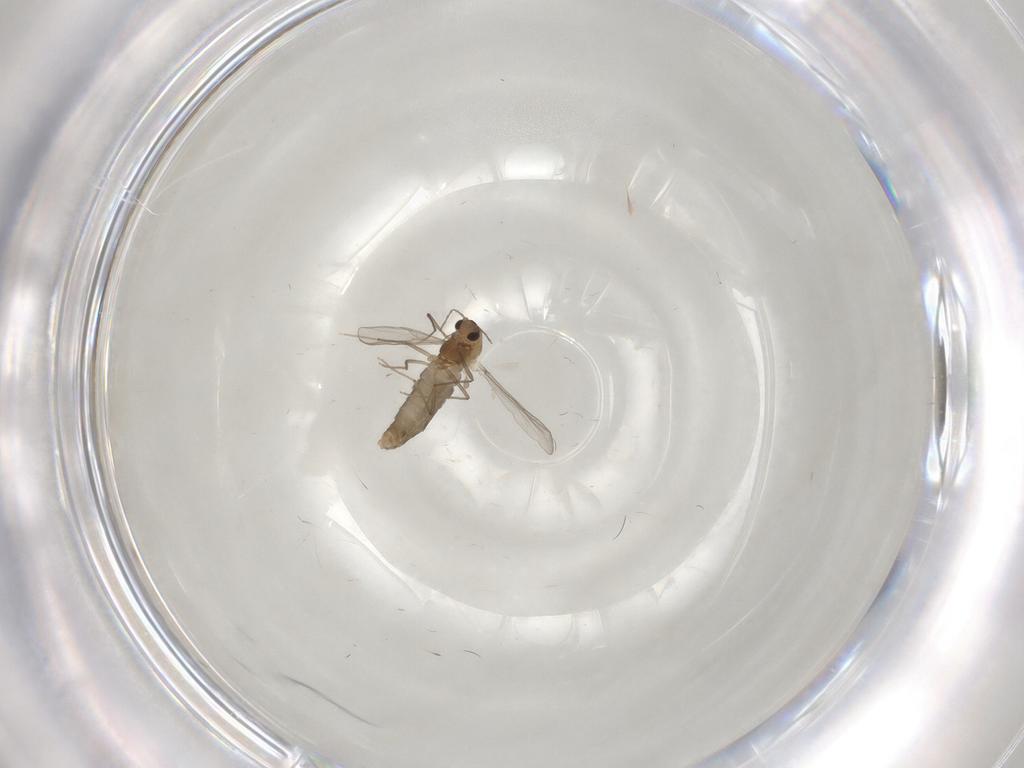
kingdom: Animalia
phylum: Arthropoda
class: Insecta
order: Diptera
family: Chironomidae
